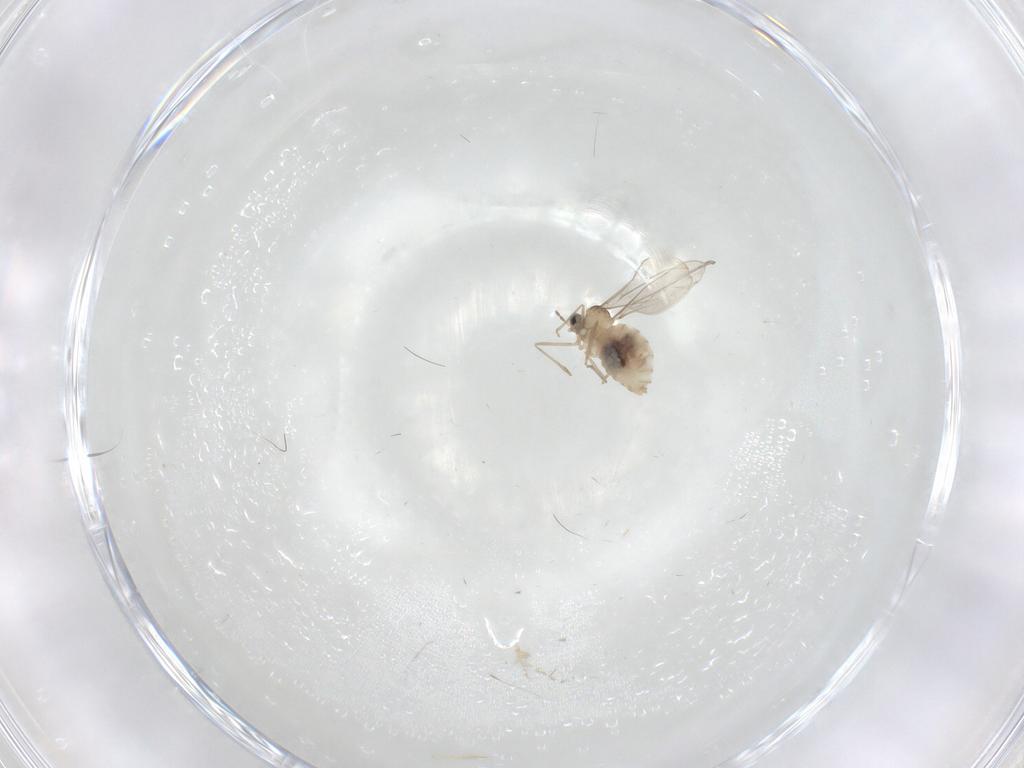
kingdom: Animalia
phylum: Arthropoda
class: Insecta
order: Diptera
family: Cecidomyiidae
